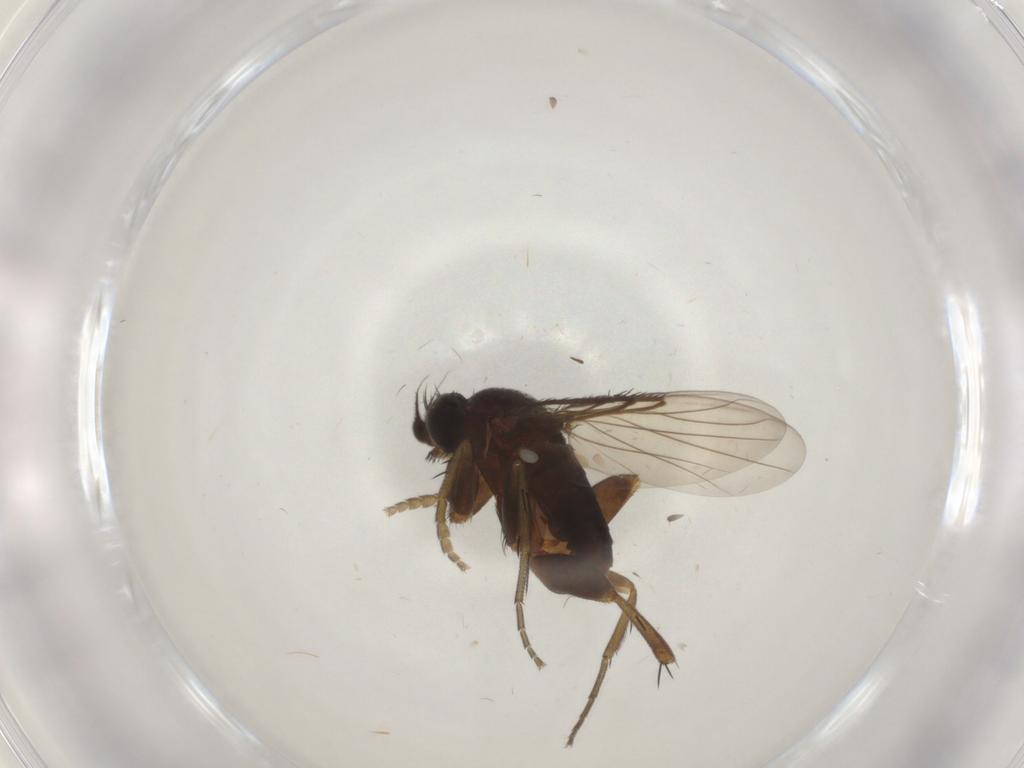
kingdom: Animalia
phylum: Arthropoda
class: Insecta
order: Diptera
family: Phoridae
